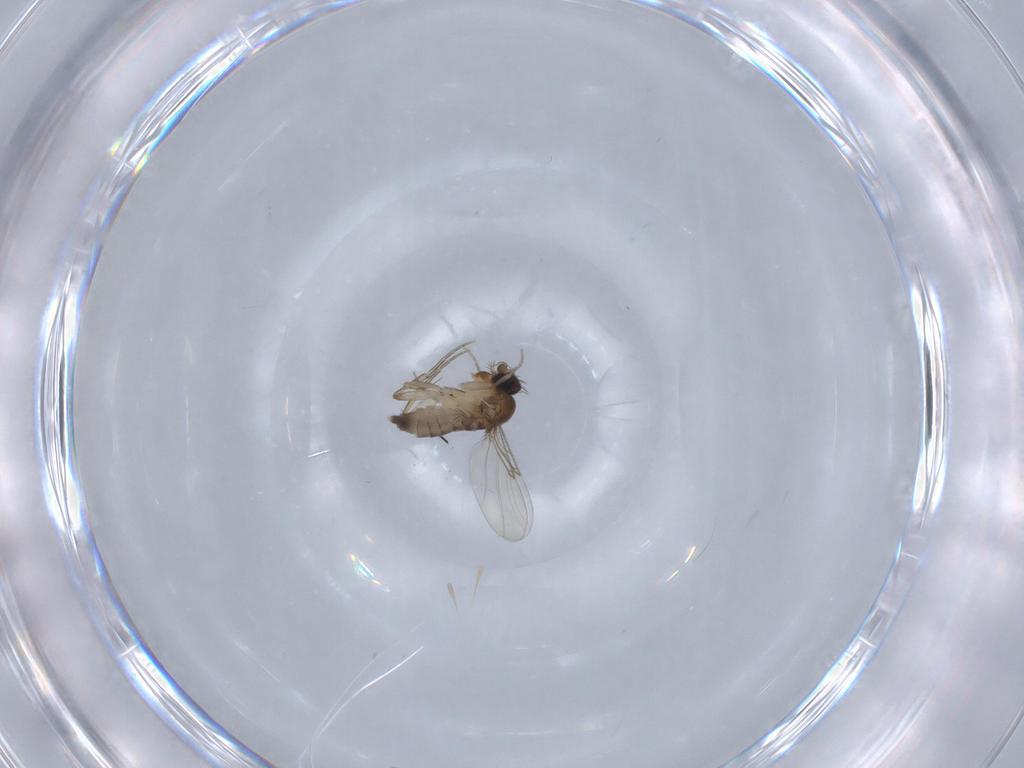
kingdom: Animalia
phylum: Arthropoda
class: Insecta
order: Diptera
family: Phoridae
